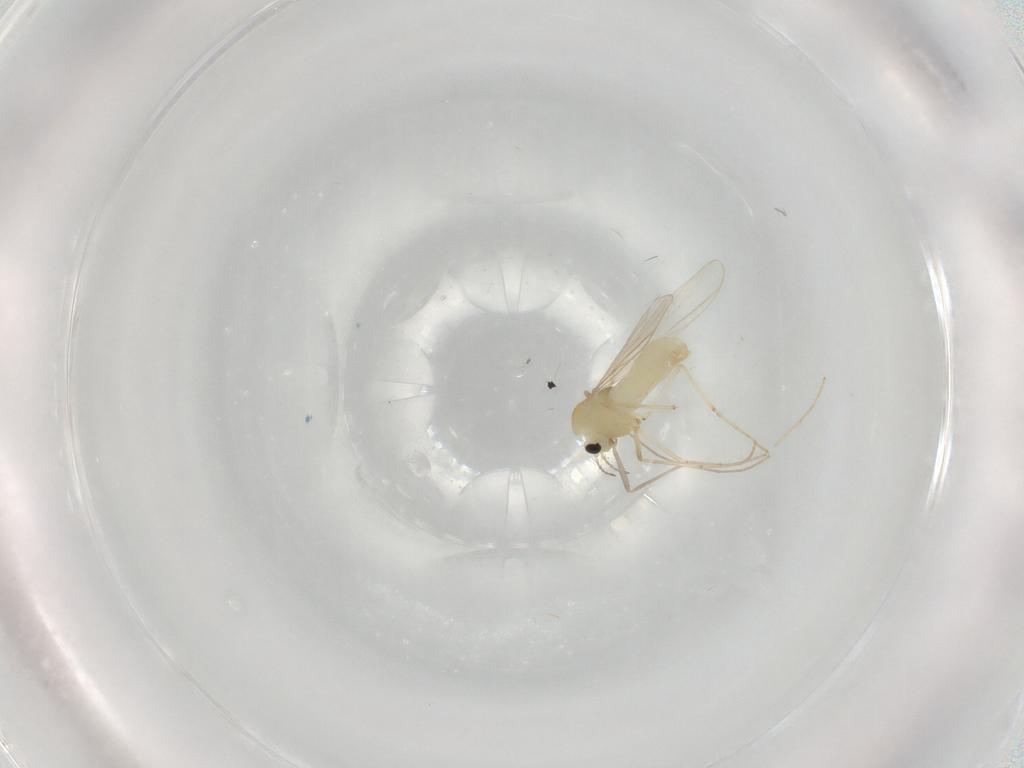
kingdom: Animalia
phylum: Arthropoda
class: Insecta
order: Diptera
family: Chironomidae
